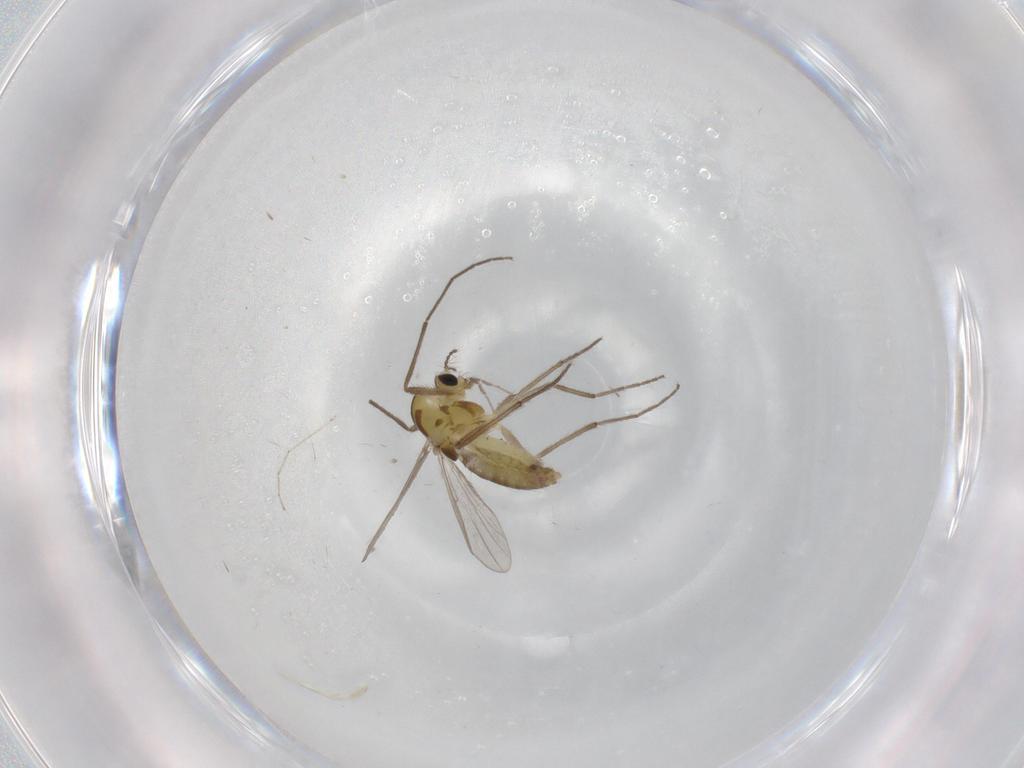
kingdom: Animalia
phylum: Arthropoda
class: Insecta
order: Diptera
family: Chironomidae
